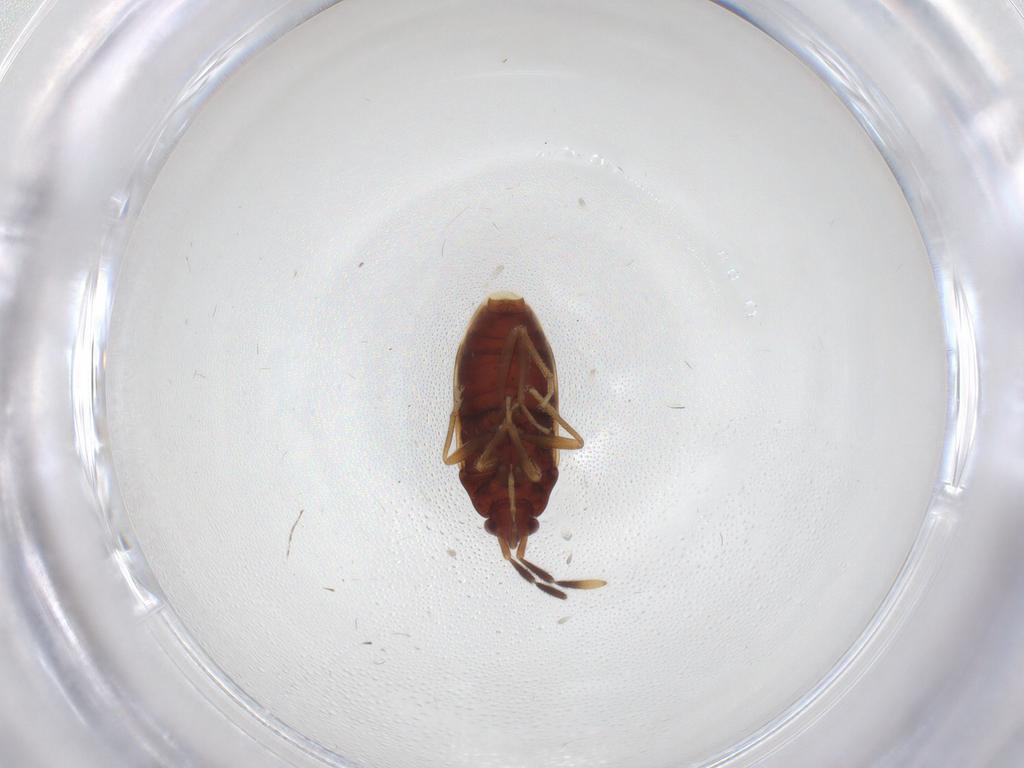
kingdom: Animalia
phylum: Arthropoda
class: Insecta
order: Hemiptera
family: Rhyparochromidae
